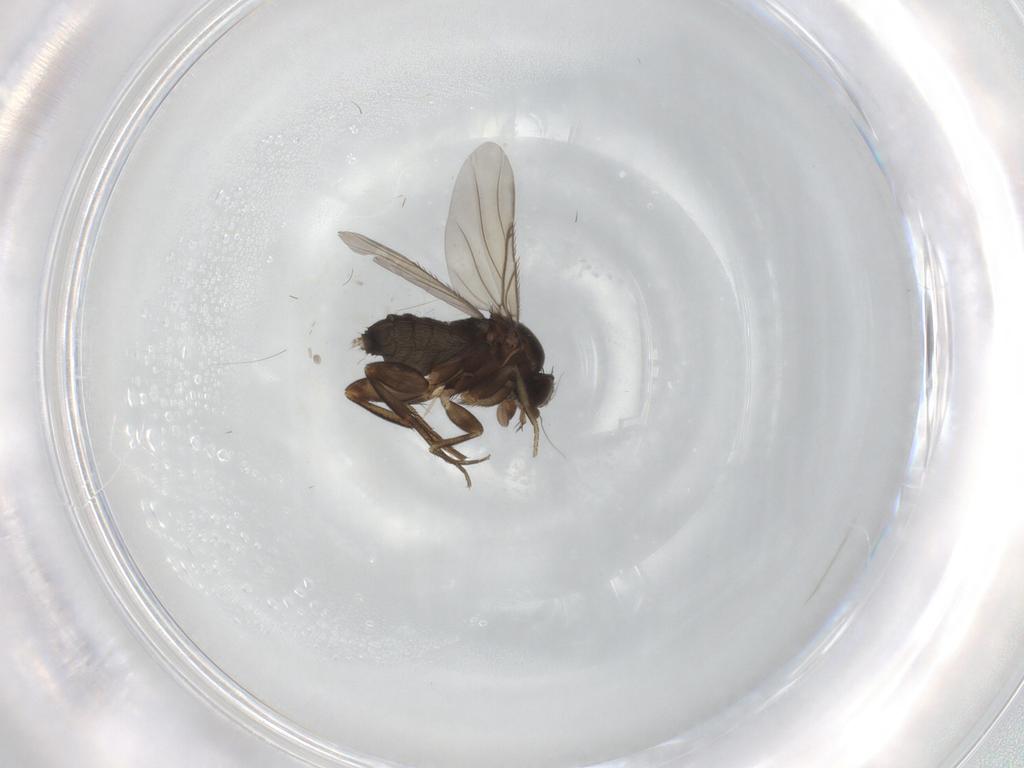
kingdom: Animalia
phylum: Arthropoda
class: Insecta
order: Diptera
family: Phoridae
